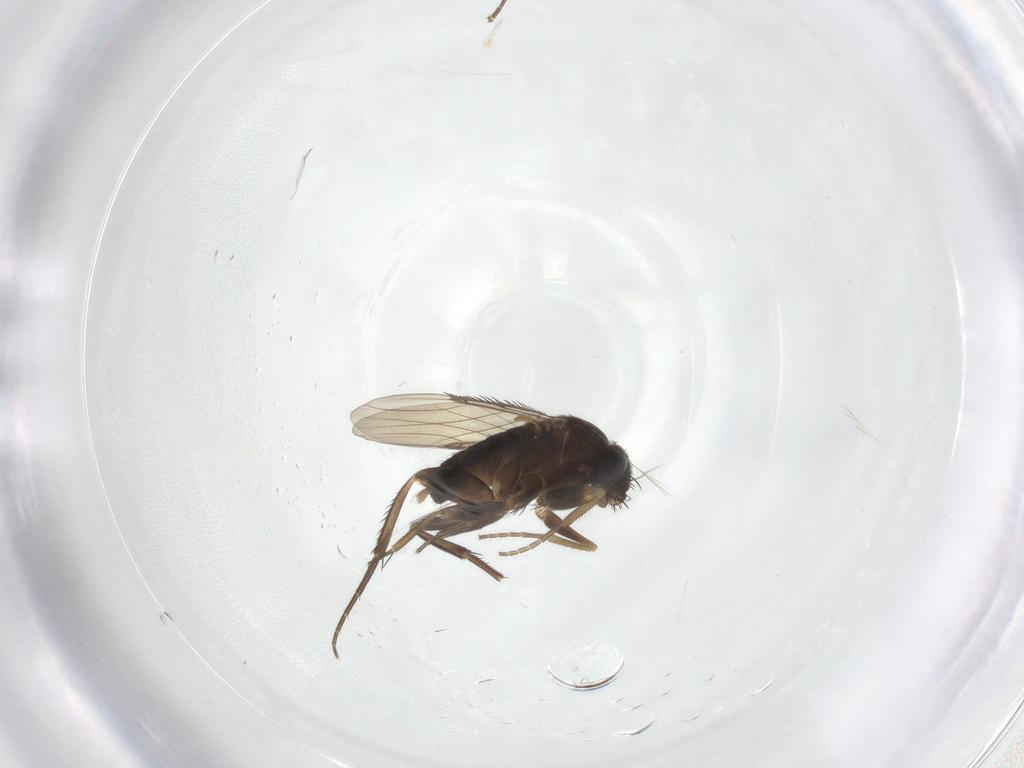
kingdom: Animalia
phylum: Arthropoda
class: Insecta
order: Diptera
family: Phoridae
